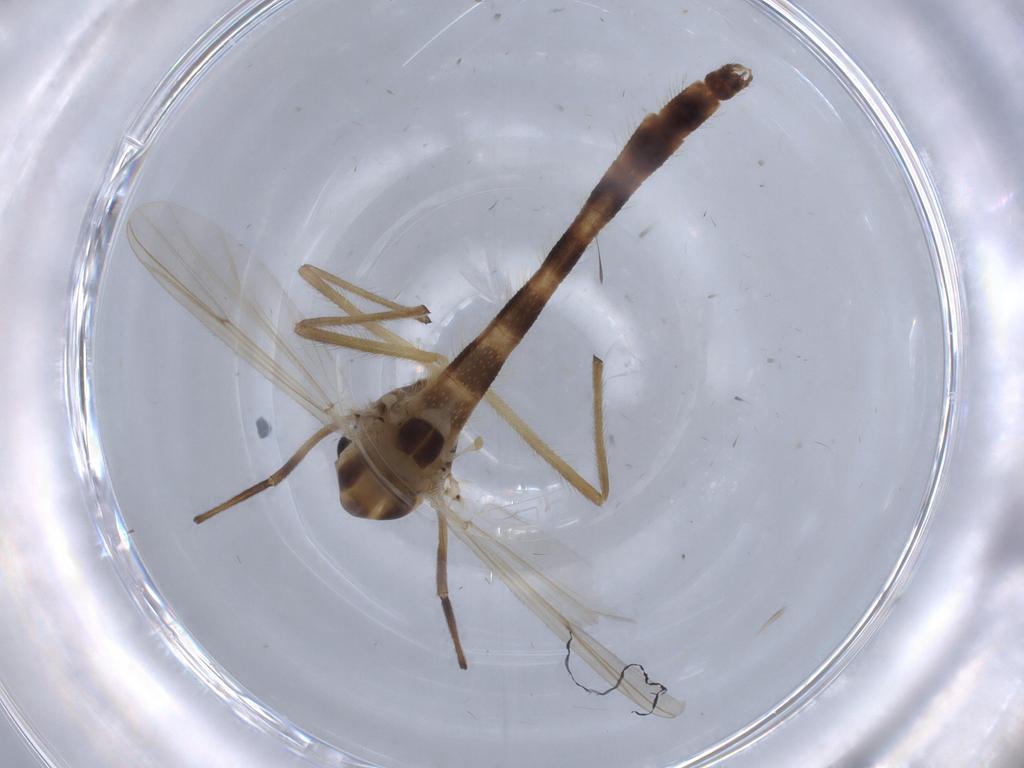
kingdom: Animalia
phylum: Arthropoda
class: Insecta
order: Diptera
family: Chironomidae
